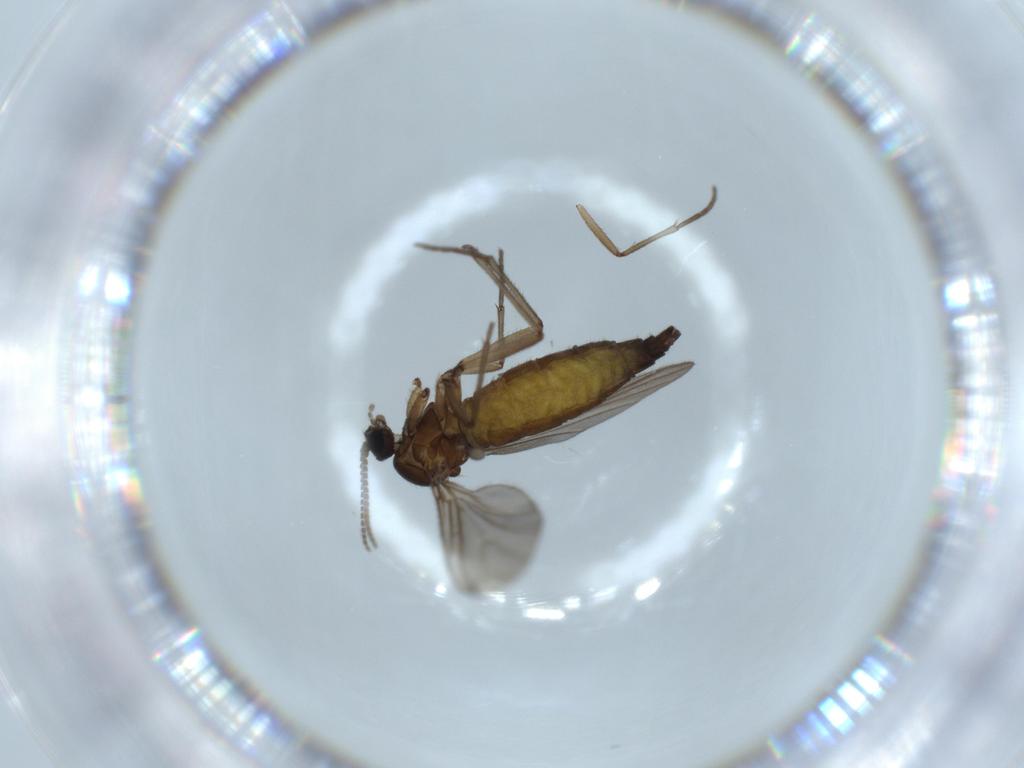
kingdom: Animalia
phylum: Arthropoda
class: Insecta
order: Diptera
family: Sciaridae
